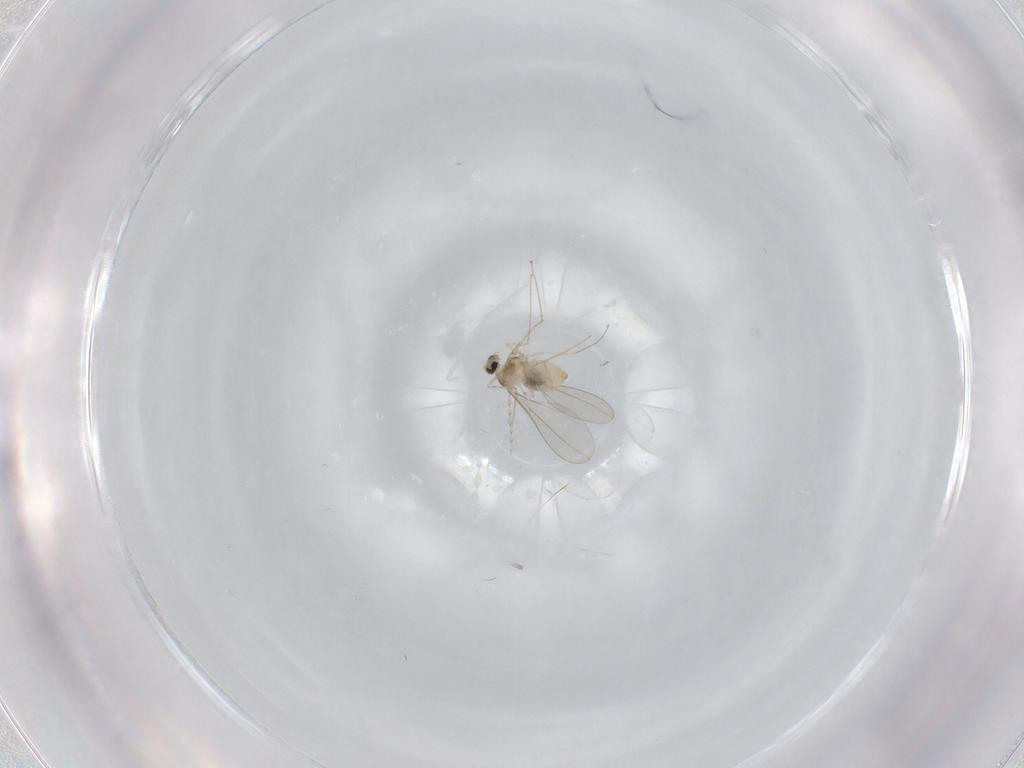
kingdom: Animalia
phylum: Arthropoda
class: Insecta
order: Diptera
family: Cecidomyiidae
